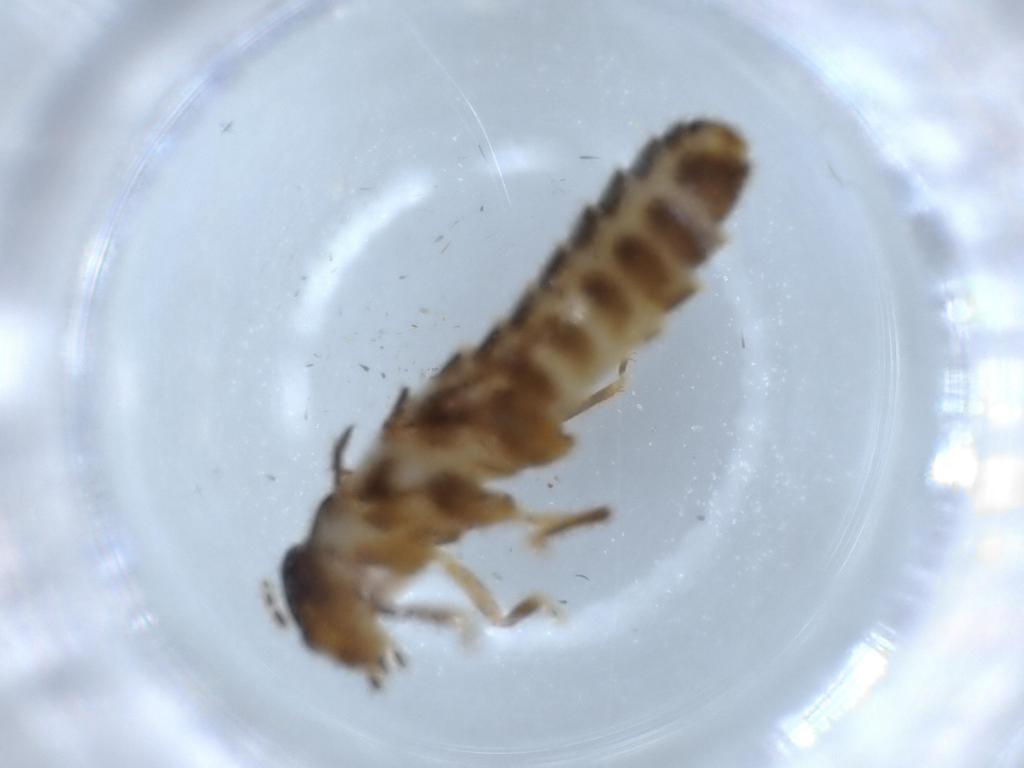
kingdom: Animalia
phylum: Arthropoda
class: Insecta
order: Blattodea
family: Termitidae
